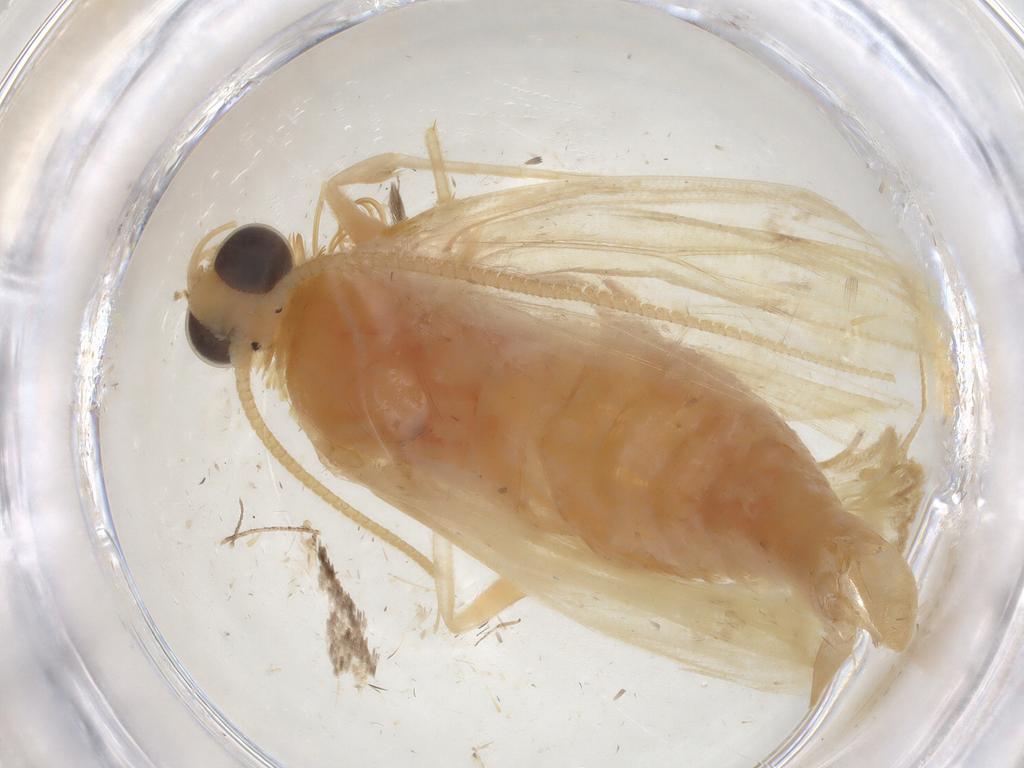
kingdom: Animalia
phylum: Arthropoda
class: Insecta
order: Lepidoptera
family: Crambidae
